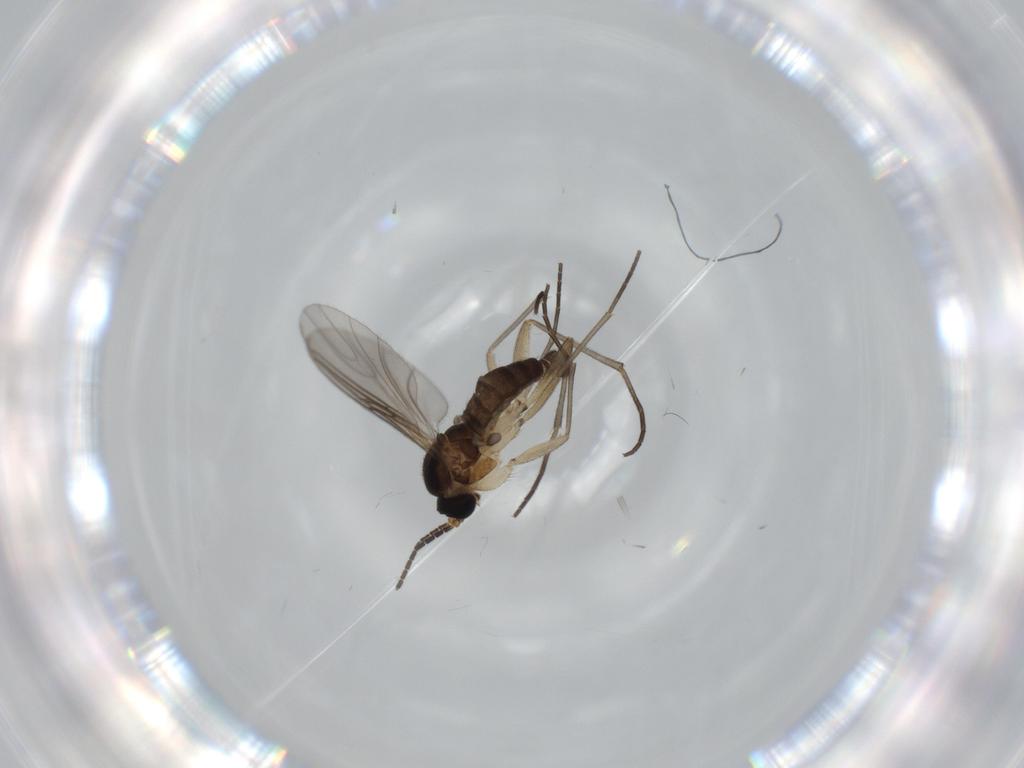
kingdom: Animalia
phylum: Arthropoda
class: Insecta
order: Diptera
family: Sciaridae
